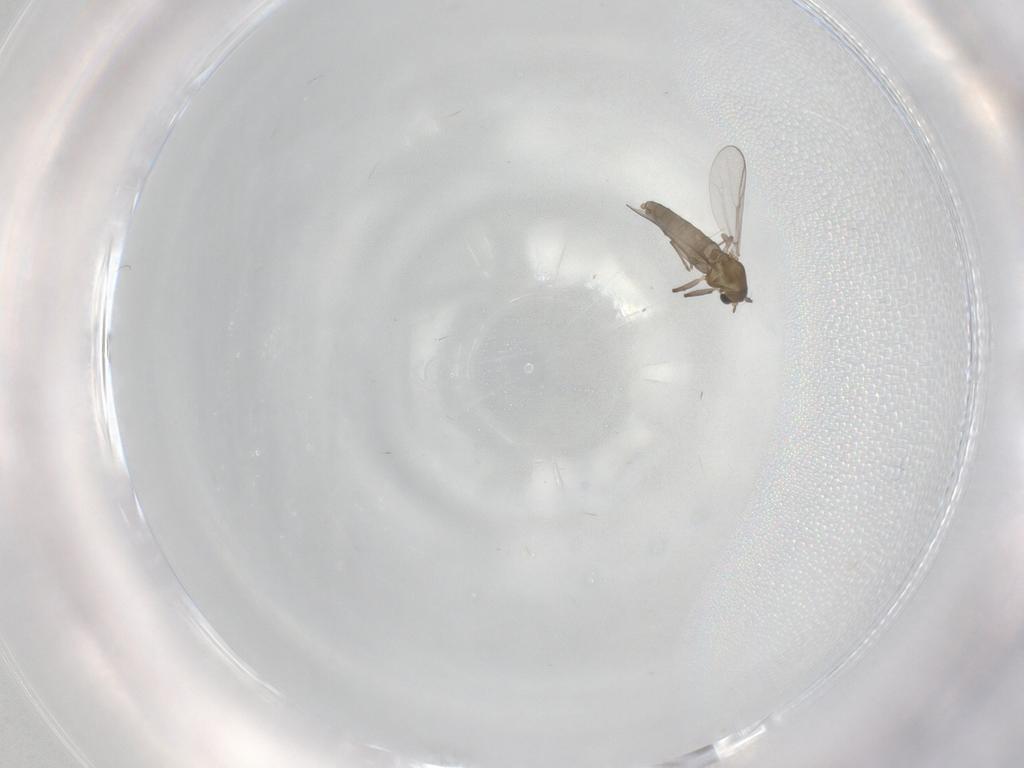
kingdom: Animalia
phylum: Arthropoda
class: Insecta
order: Diptera
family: Chironomidae
